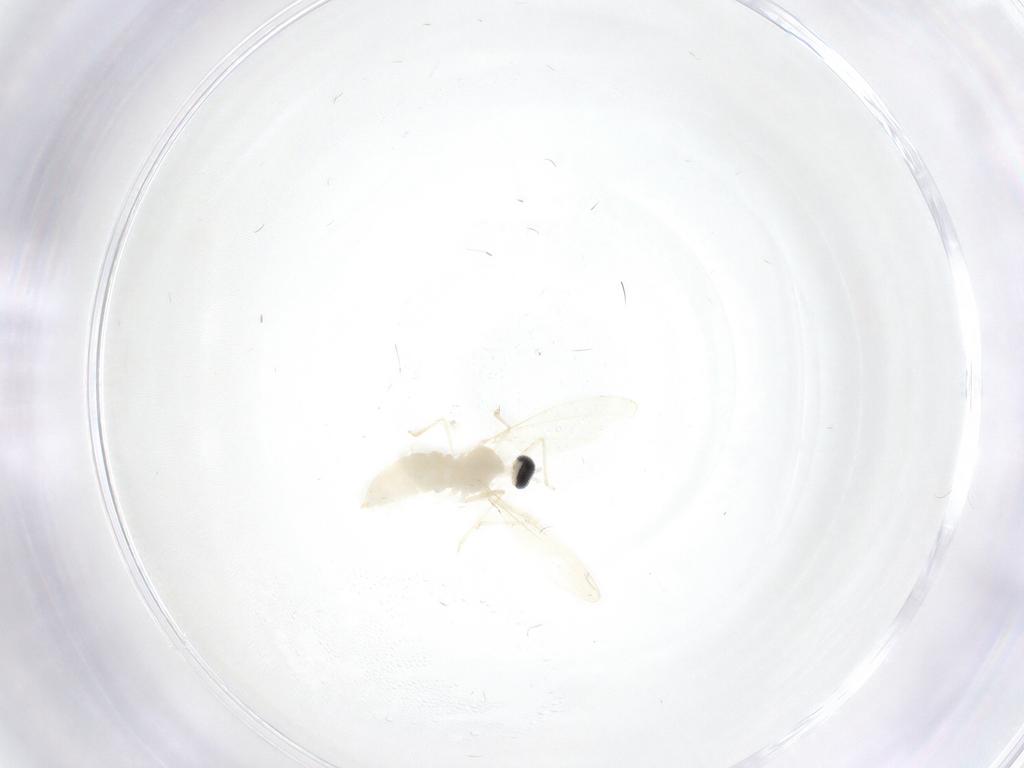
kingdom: Animalia
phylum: Arthropoda
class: Insecta
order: Diptera
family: Cecidomyiidae
